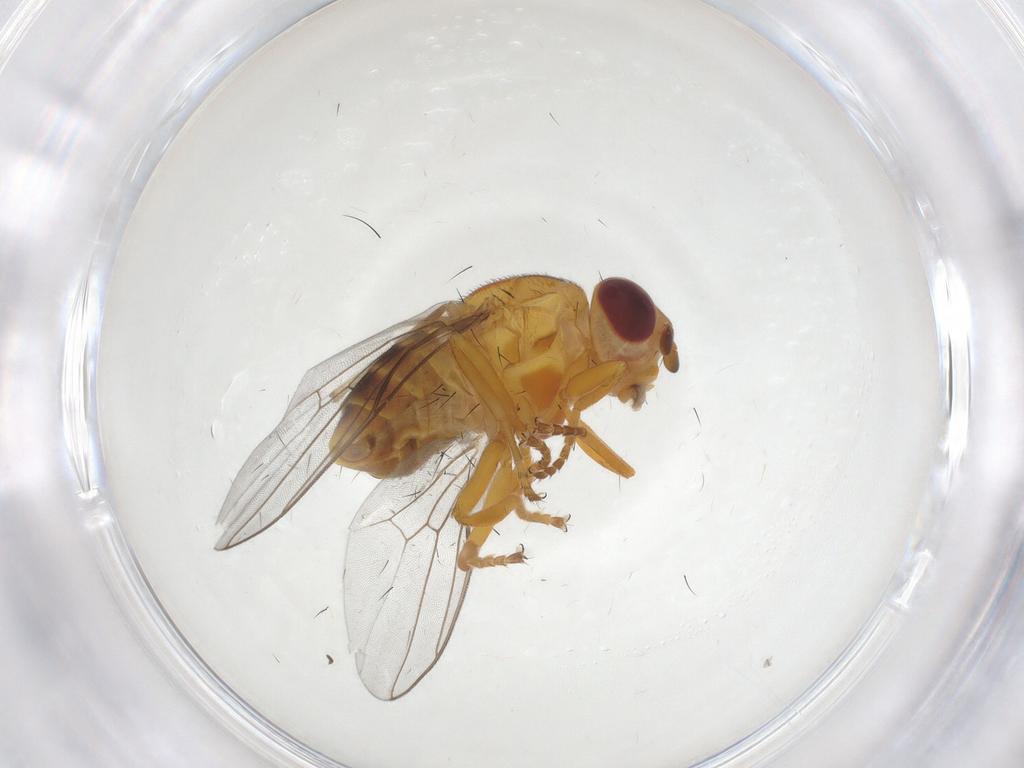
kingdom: Animalia
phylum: Arthropoda
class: Insecta
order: Diptera
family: Chloropidae
